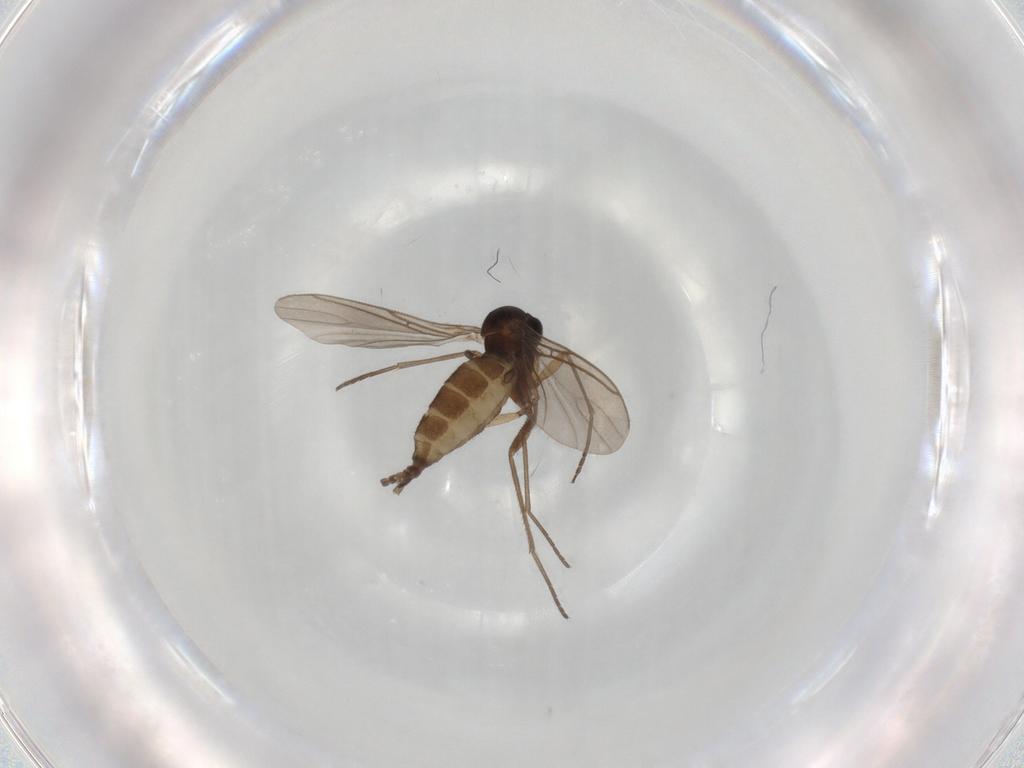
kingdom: Animalia
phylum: Arthropoda
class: Insecta
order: Diptera
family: Sciaridae
